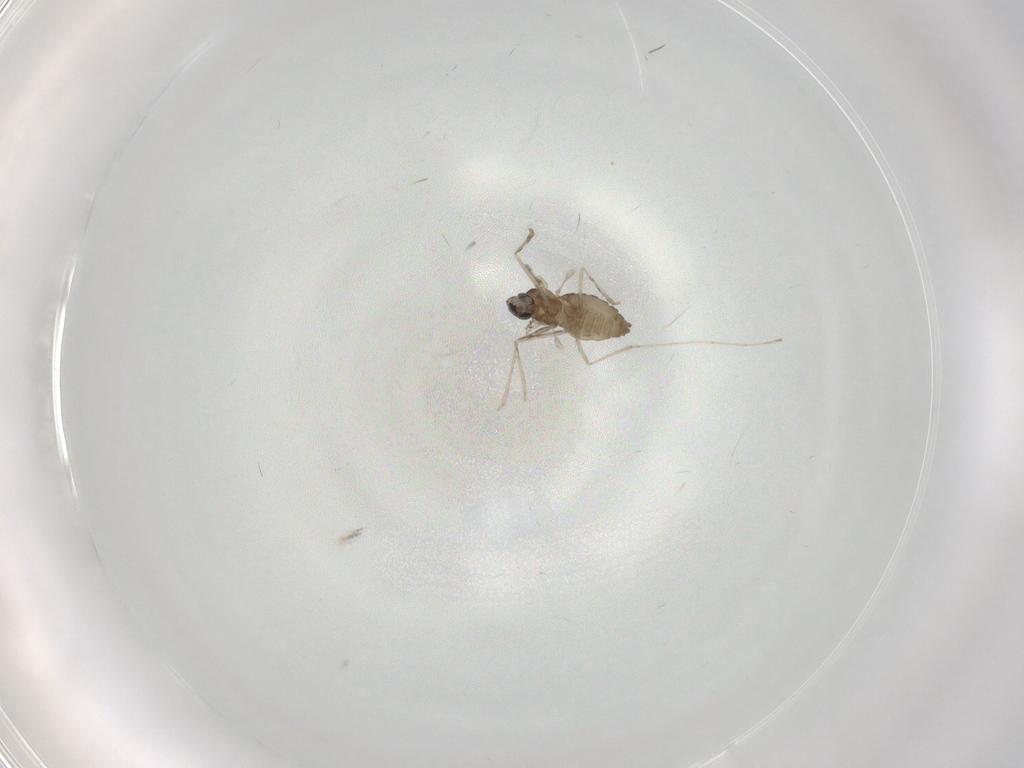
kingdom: Animalia
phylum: Arthropoda
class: Insecta
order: Diptera
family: Cecidomyiidae
